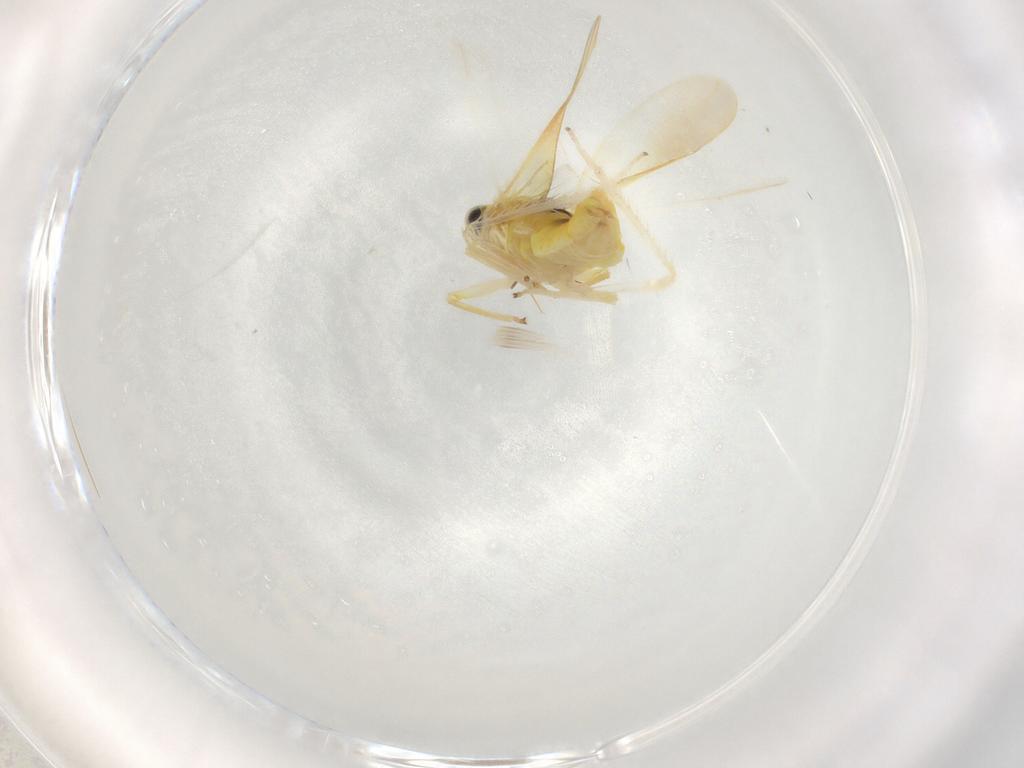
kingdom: Animalia
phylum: Arthropoda
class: Insecta
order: Hemiptera
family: Cicadellidae
